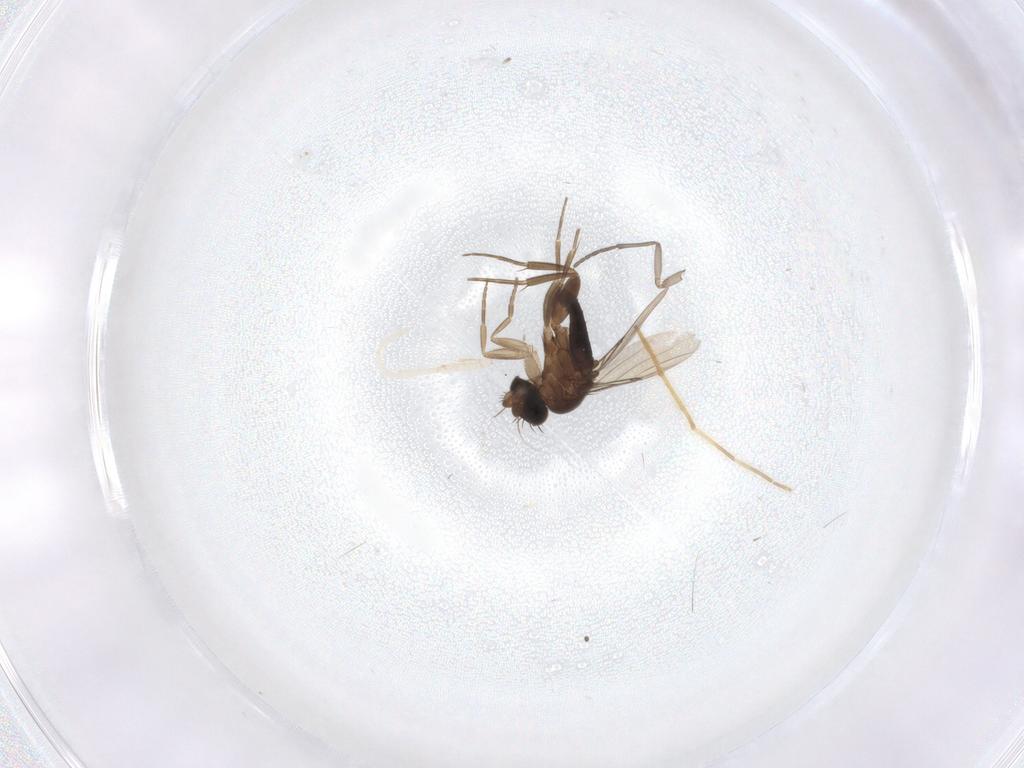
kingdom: Animalia
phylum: Arthropoda
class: Insecta
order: Diptera
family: Phoridae
